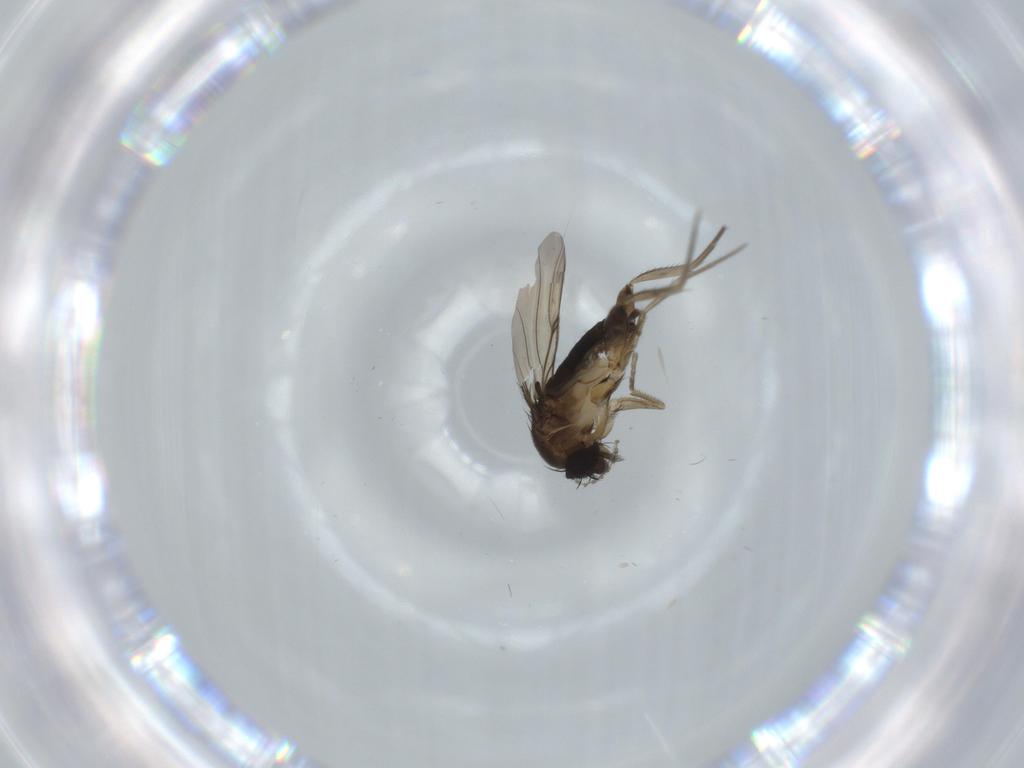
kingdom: Animalia
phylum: Arthropoda
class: Insecta
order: Diptera
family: Phoridae
